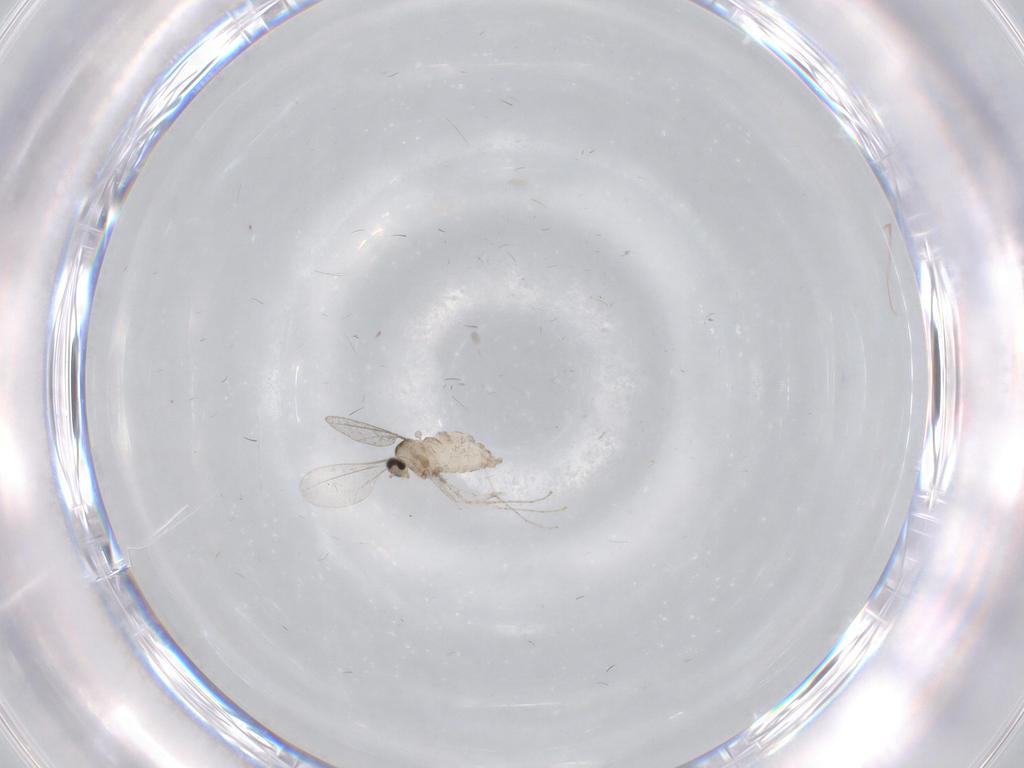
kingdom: Animalia
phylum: Arthropoda
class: Insecta
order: Diptera
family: Cecidomyiidae
